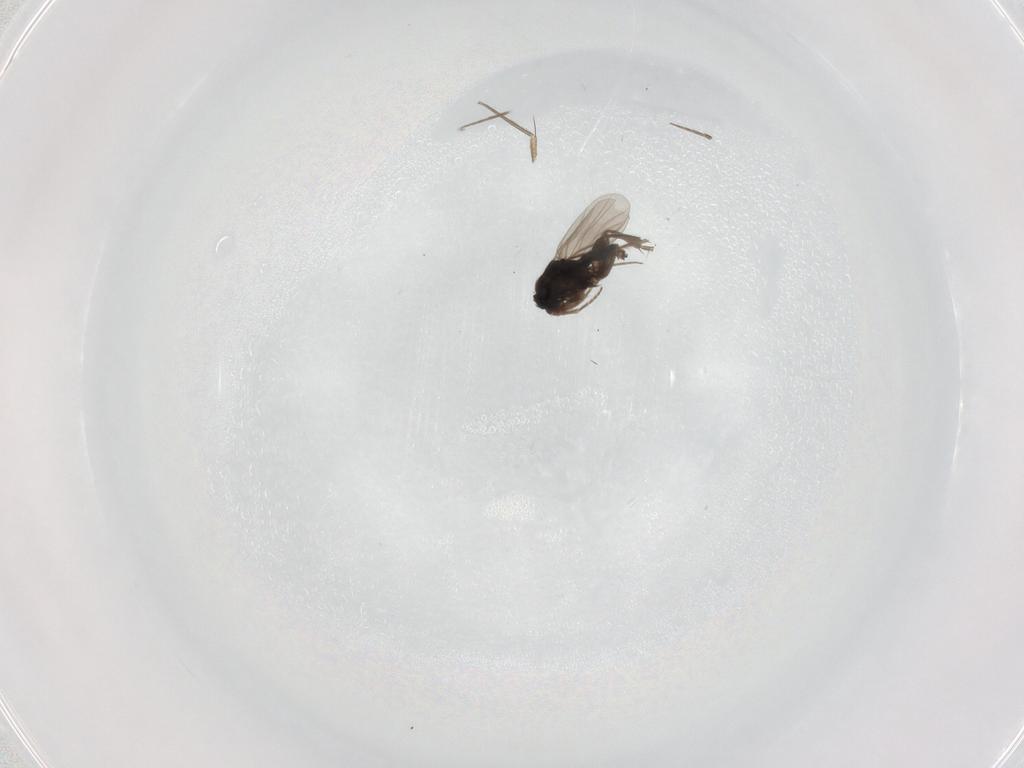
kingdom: Animalia
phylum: Arthropoda
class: Insecta
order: Diptera
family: Phoridae
